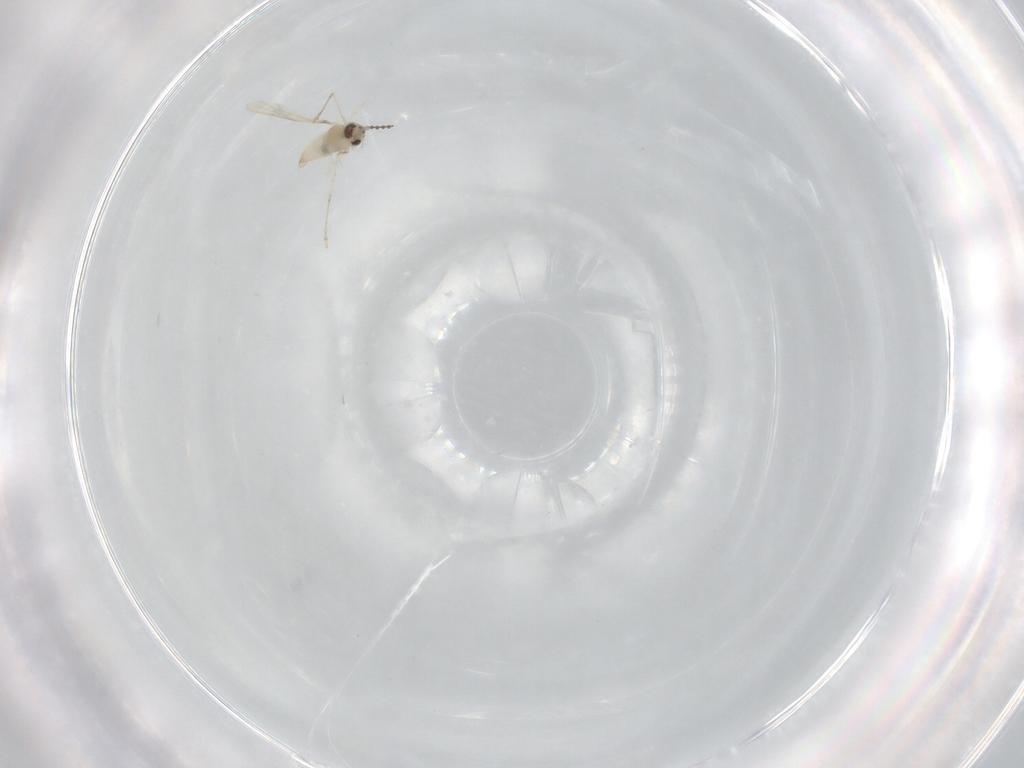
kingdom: Animalia
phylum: Arthropoda
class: Insecta
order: Diptera
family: Cecidomyiidae
